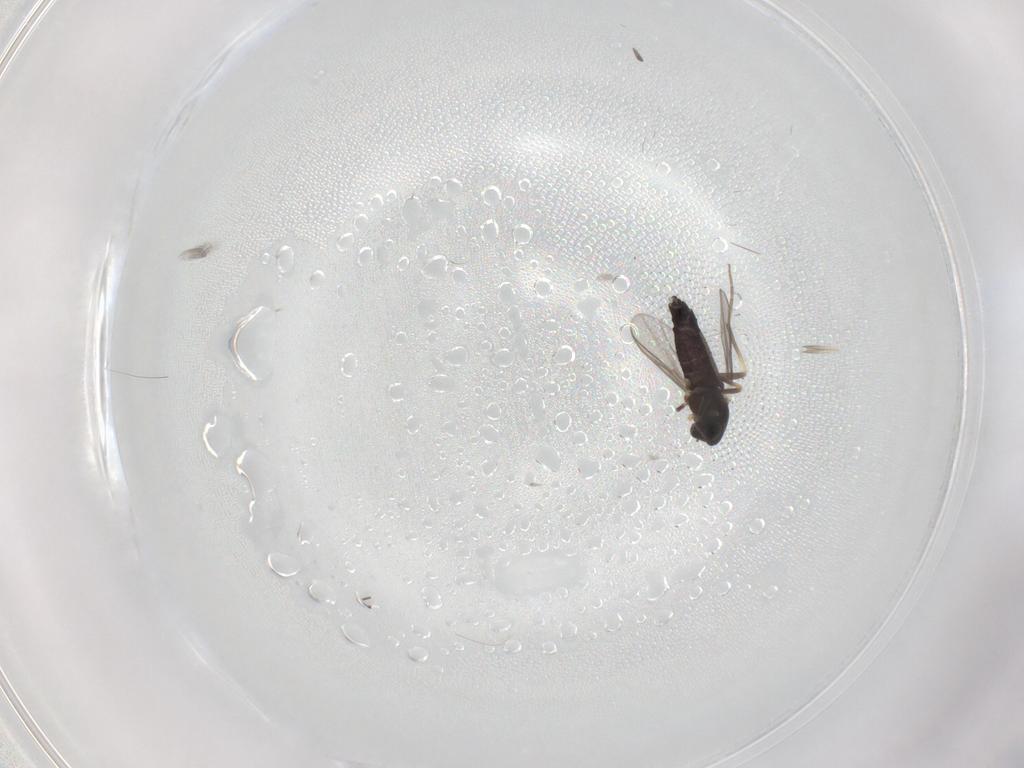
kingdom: Animalia
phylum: Arthropoda
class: Insecta
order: Diptera
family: Chironomidae
